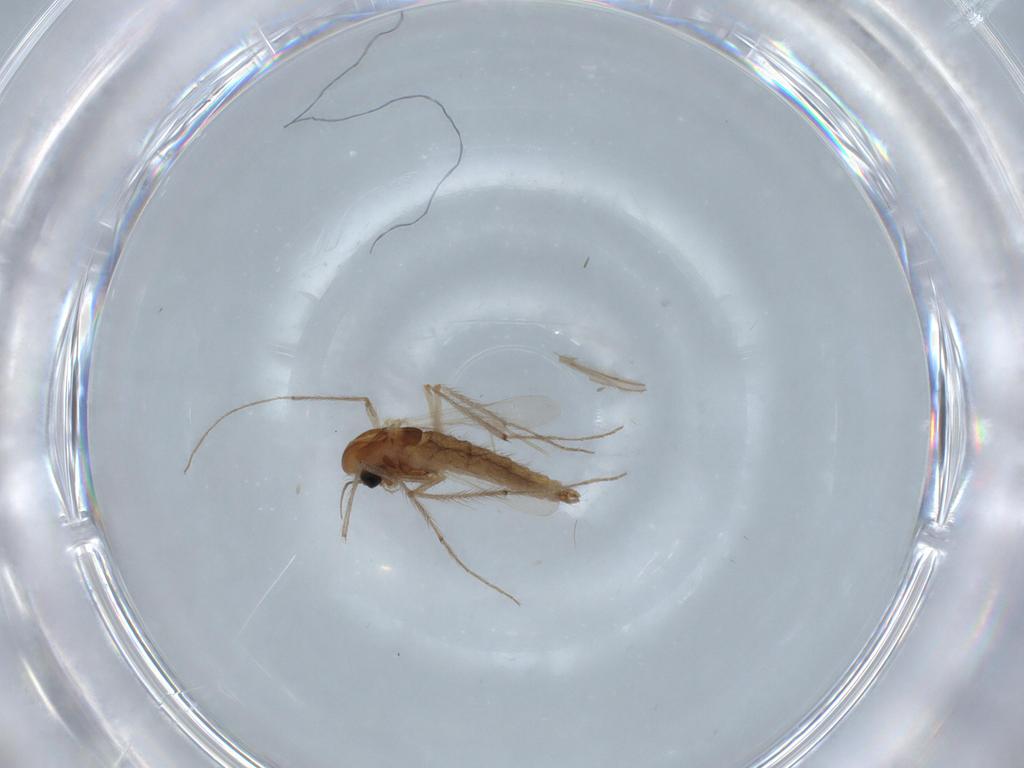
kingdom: Animalia
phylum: Arthropoda
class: Insecta
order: Diptera
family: Chironomidae
